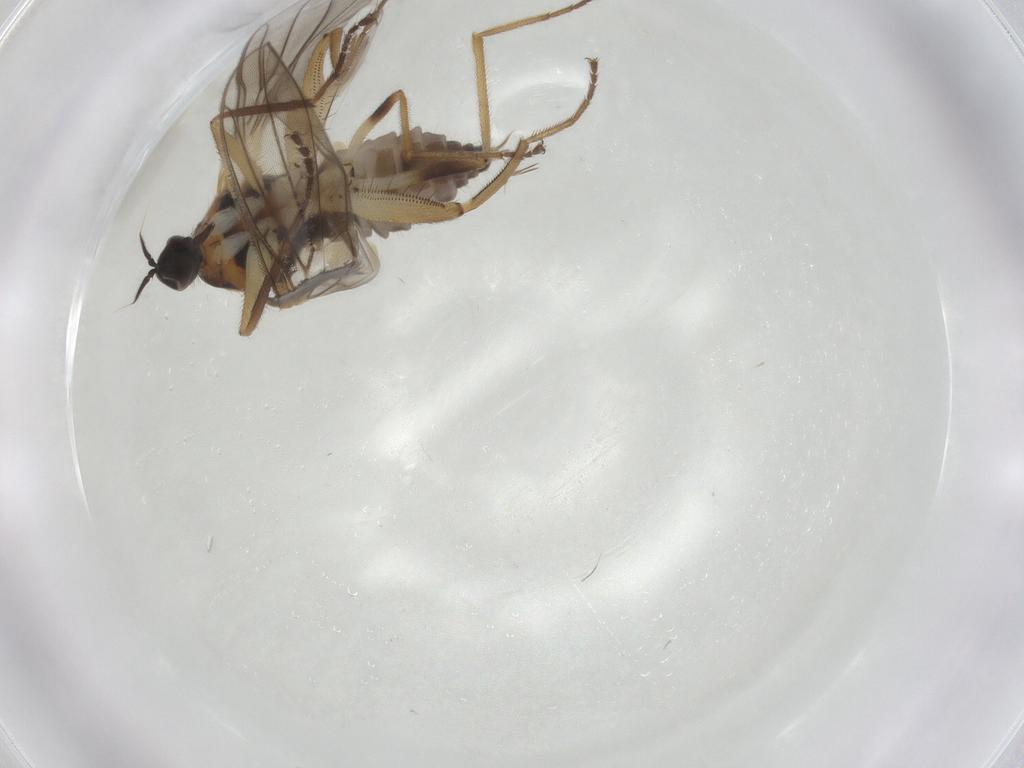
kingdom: Animalia
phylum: Arthropoda
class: Insecta
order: Diptera
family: Hybotidae
